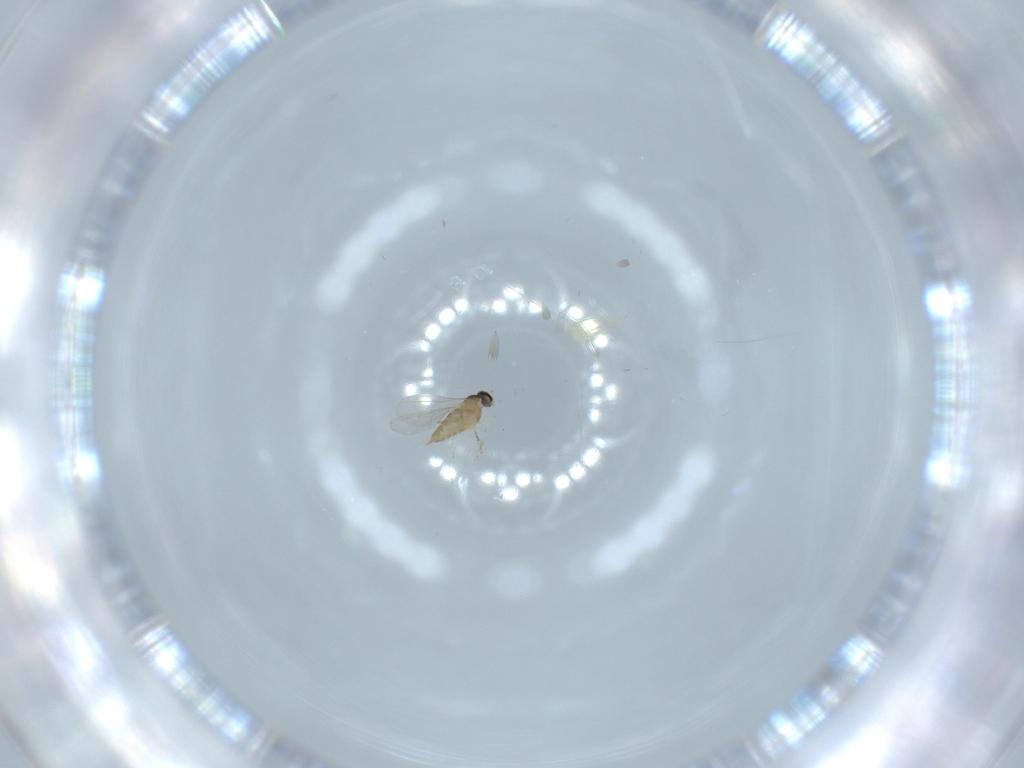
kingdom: Animalia
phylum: Arthropoda
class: Insecta
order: Diptera
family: Cecidomyiidae
